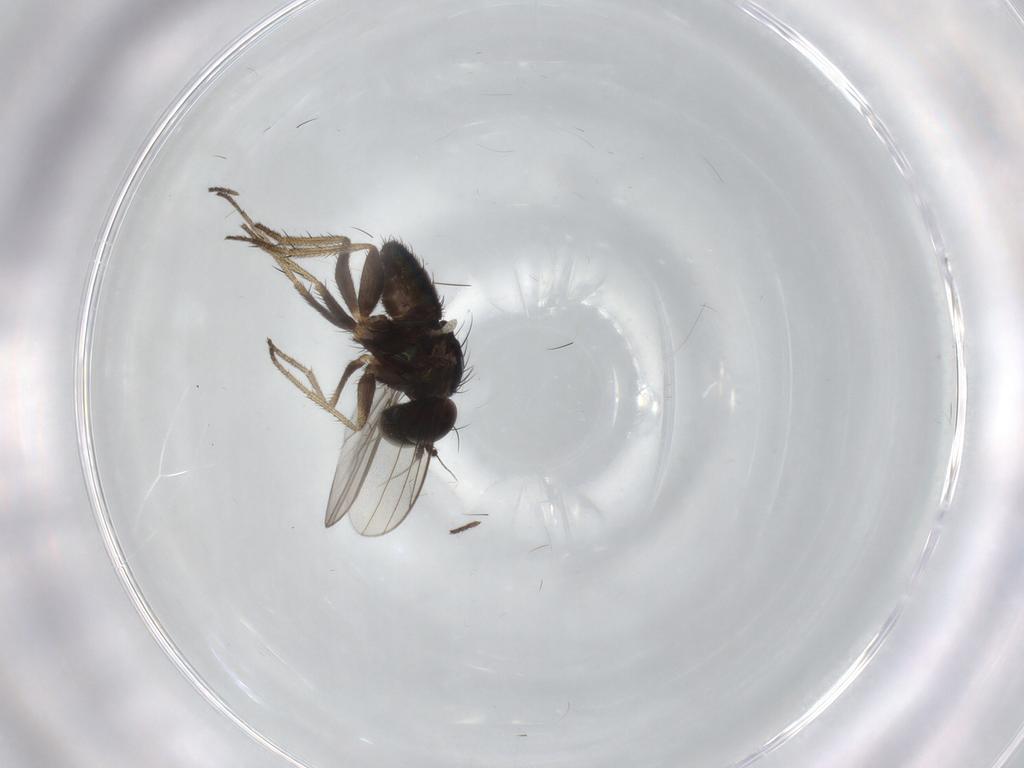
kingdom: Animalia
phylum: Arthropoda
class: Insecta
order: Diptera
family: Dolichopodidae
